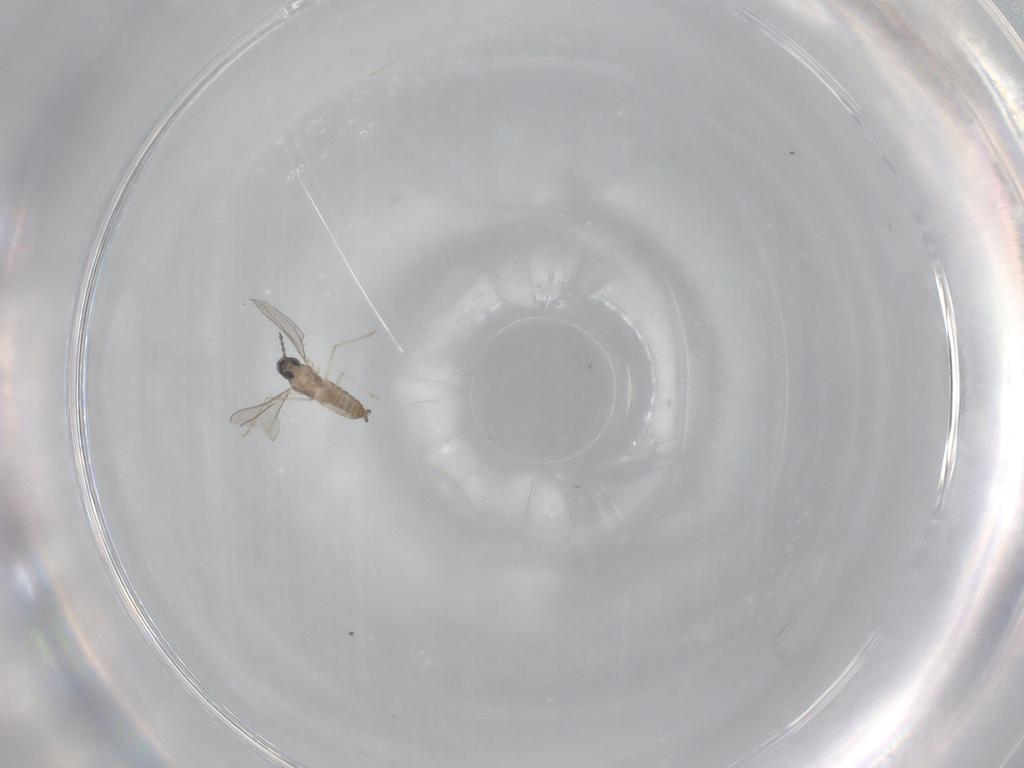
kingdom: Animalia
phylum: Arthropoda
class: Insecta
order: Diptera
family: Cecidomyiidae
